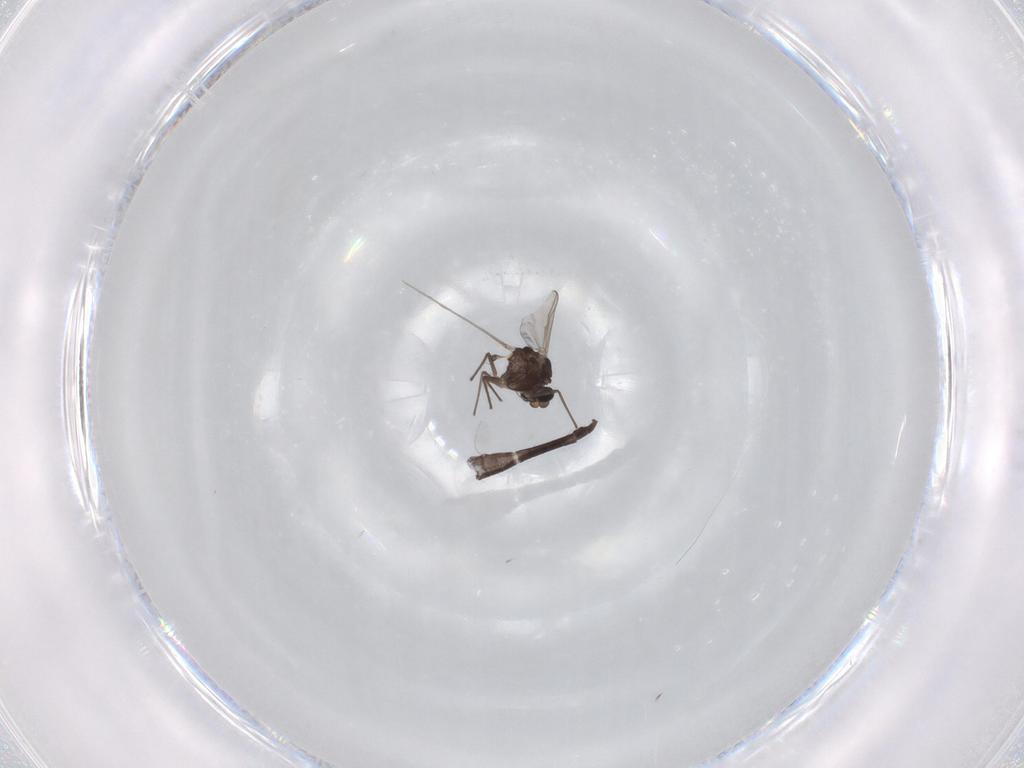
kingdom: Animalia
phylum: Arthropoda
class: Insecta
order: Diptera
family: Chironomidae
